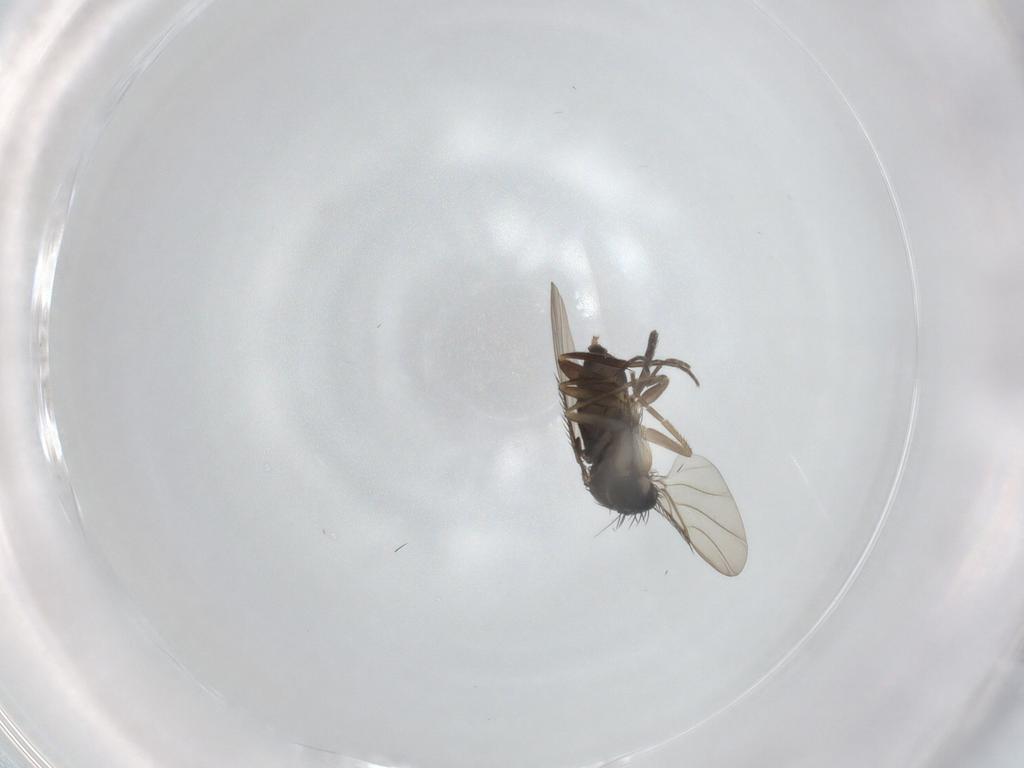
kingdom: Animalia
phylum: Arthropoda
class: Insecta
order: Diptera
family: Phoridae
